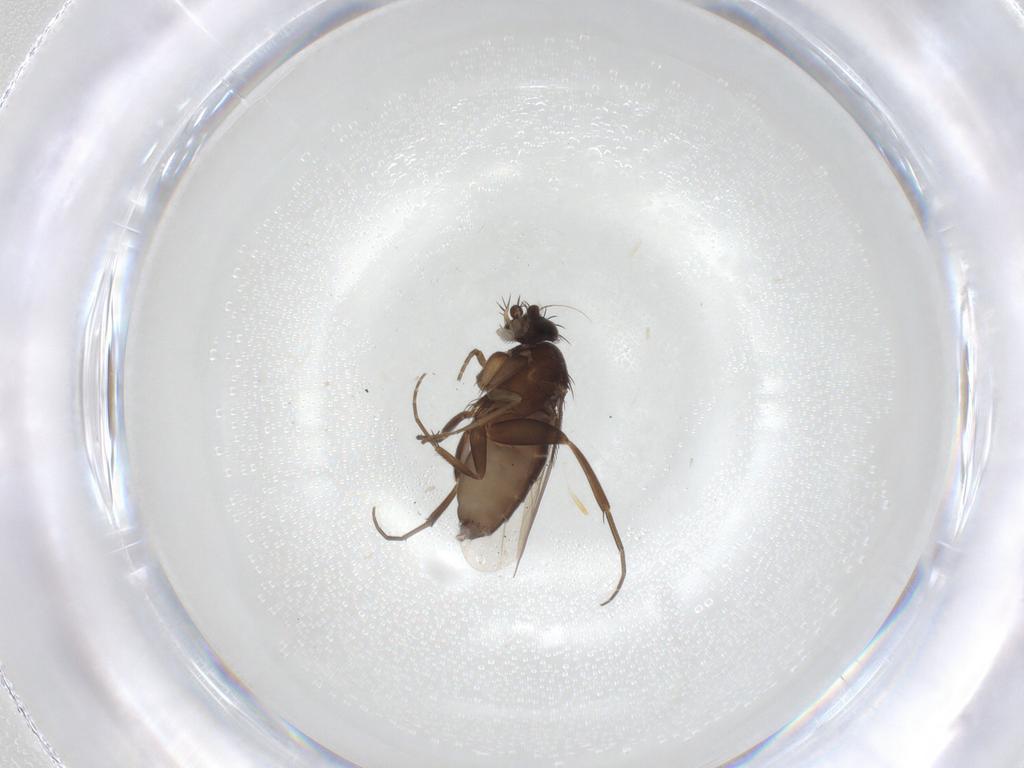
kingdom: Animalia
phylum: Arthropoda
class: Insecta
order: Diptera
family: Phoridae
